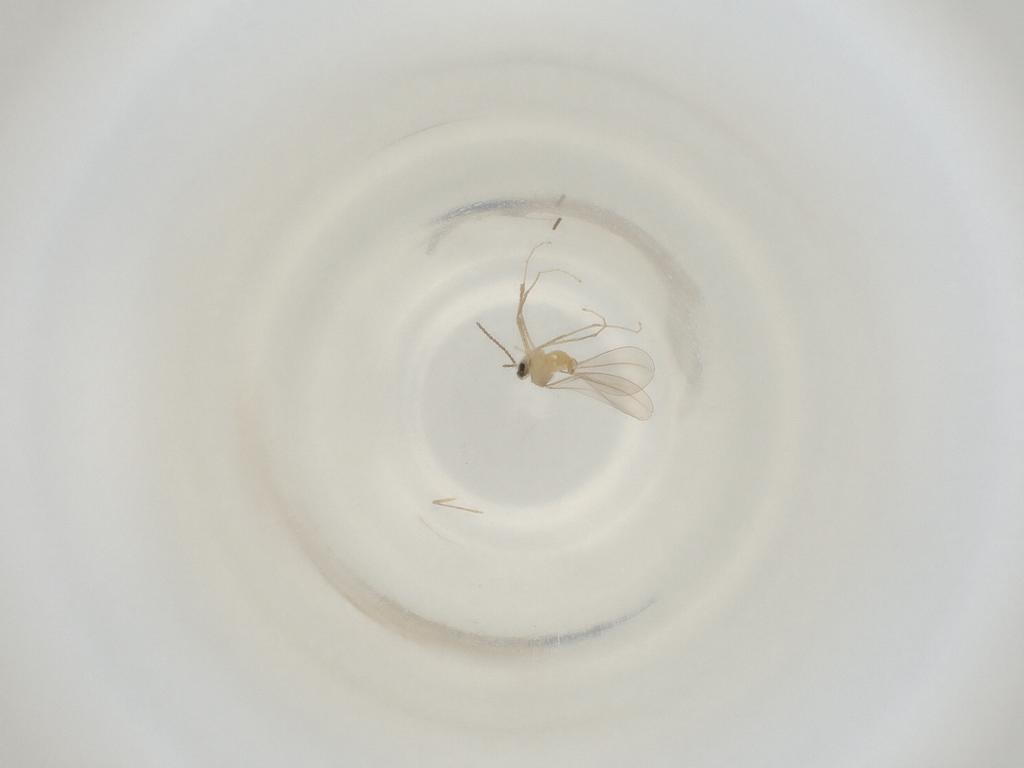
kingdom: Animalia
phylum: Arthropoda
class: Insecta
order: Diptera
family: Cecidomyiidae
